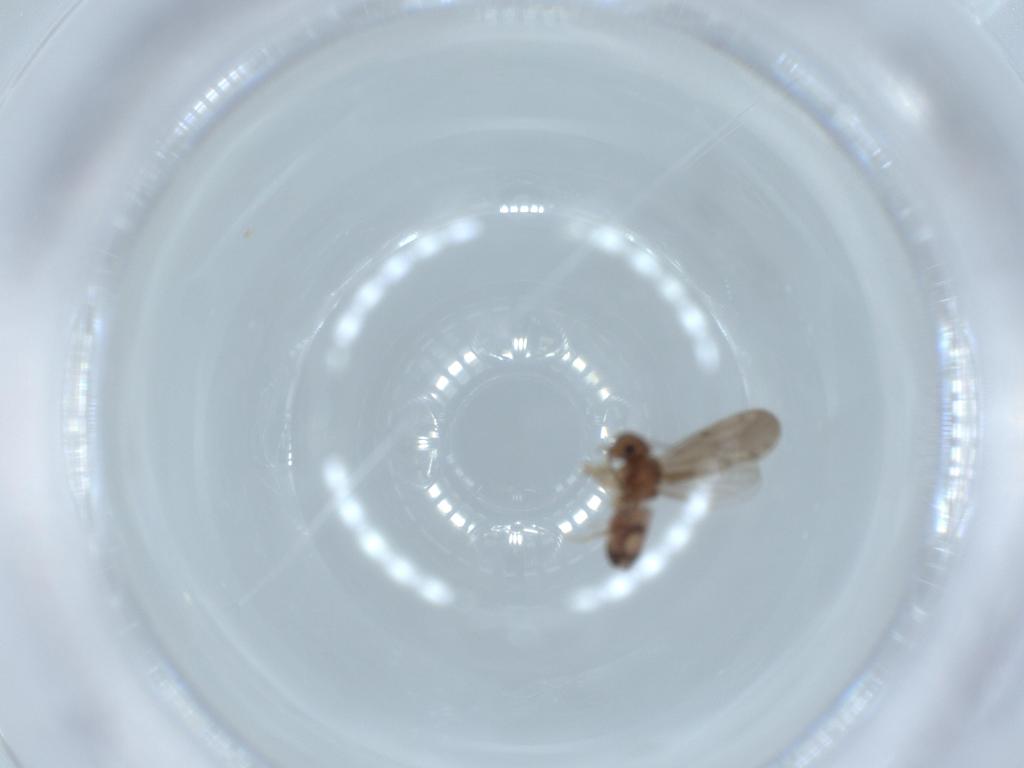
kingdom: Animalia
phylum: Arthropoda
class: Insecta
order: Psocodea
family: Ectopsocidae
